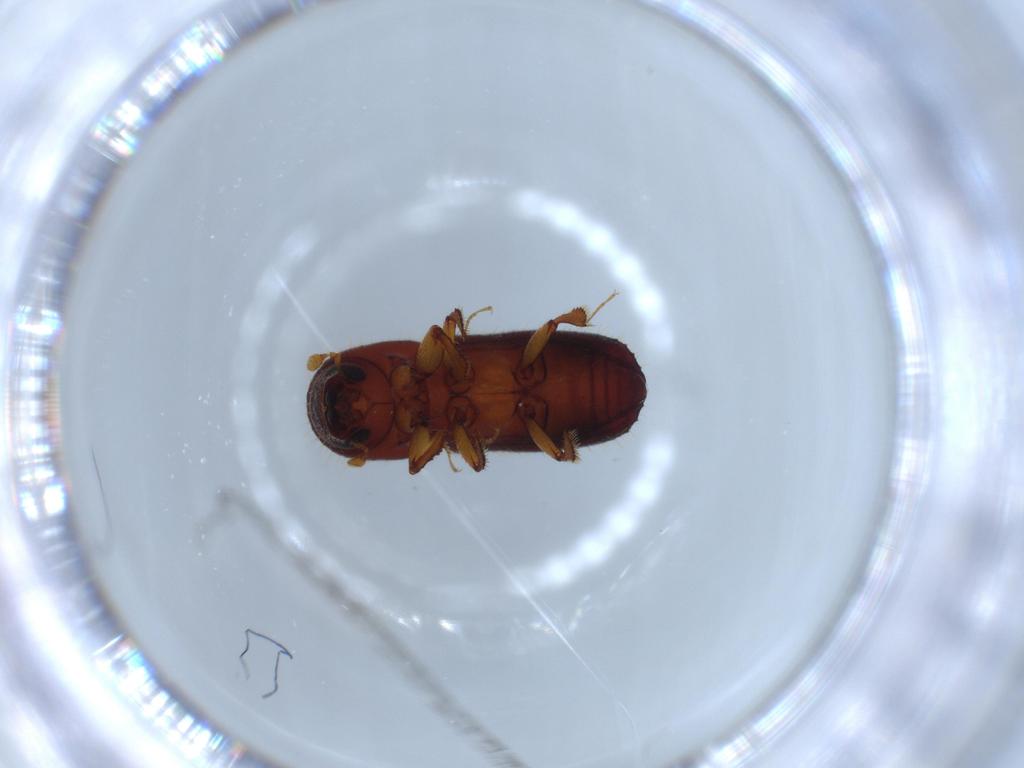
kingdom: Animalia
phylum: Arthropoda
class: Insecta
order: Coleoptera
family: Curculionidae
